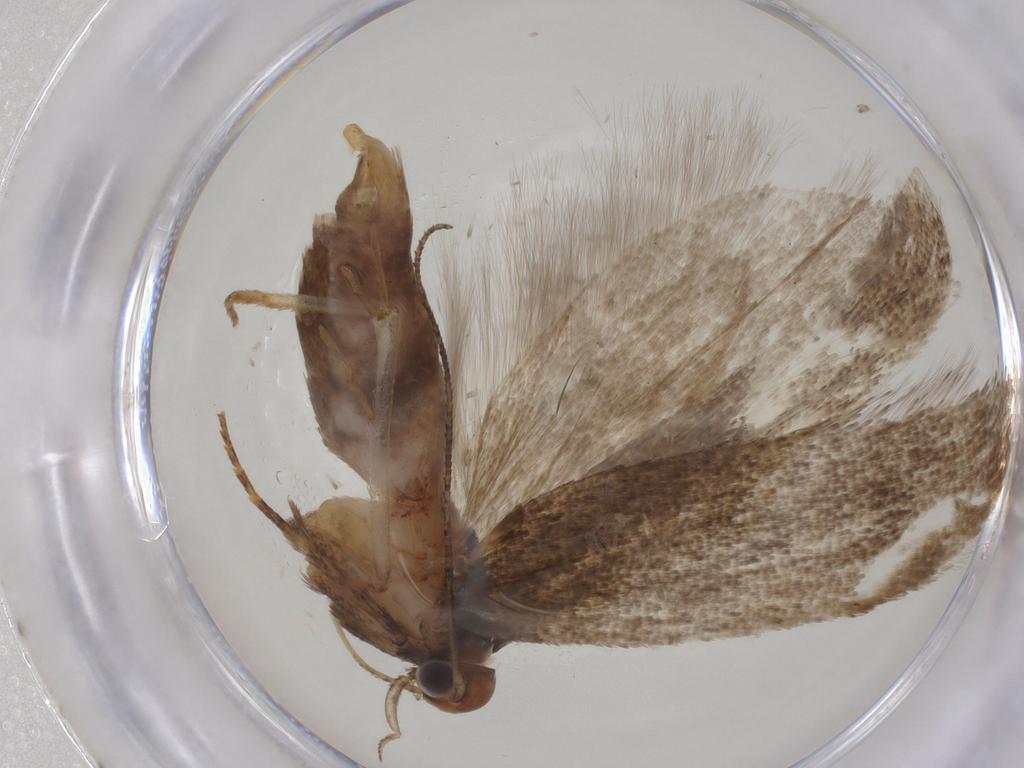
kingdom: Animalia
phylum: Arthropoda
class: Insecta
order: Lepidoptera
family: Gelechiidae
